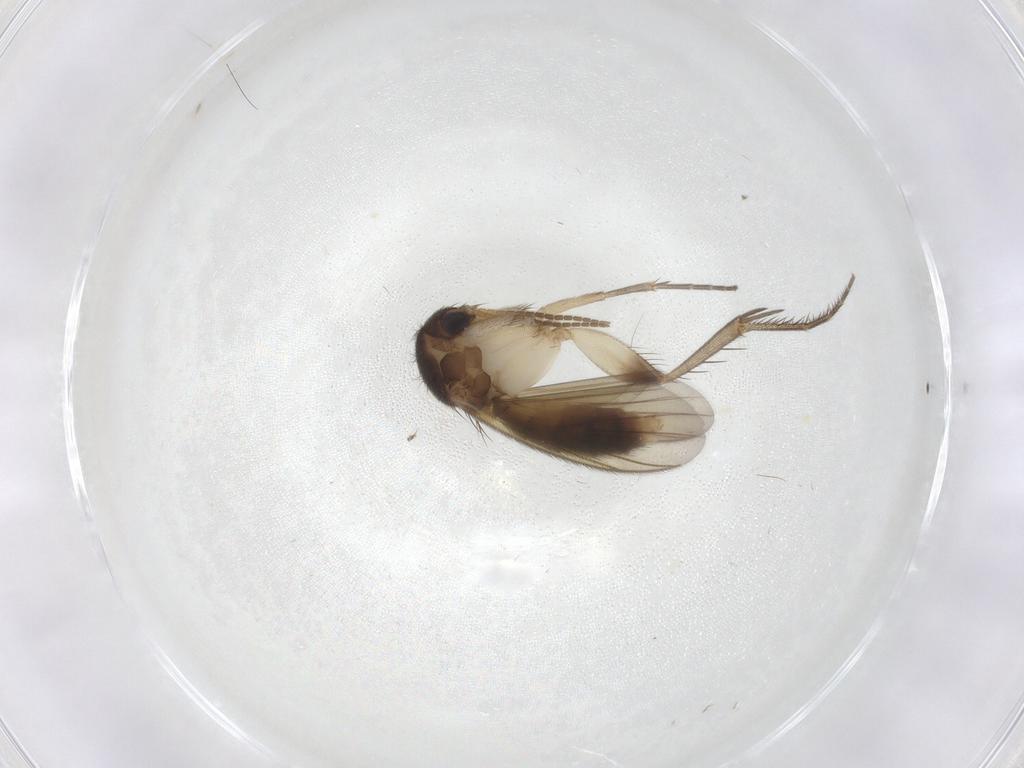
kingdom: Animalia
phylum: Arthropoda
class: Insecta
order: Diptera
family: Mycetophilidae
